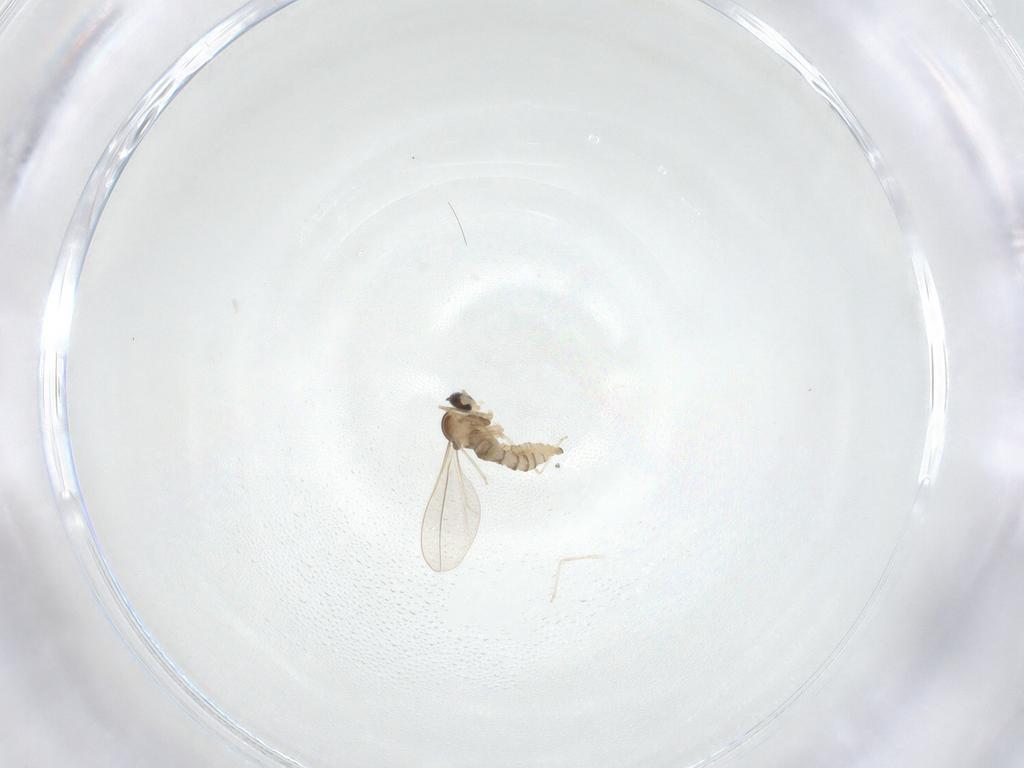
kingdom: Animalia
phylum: Arthropoda
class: Insecta
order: Diptera
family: Cecidomyiidae
